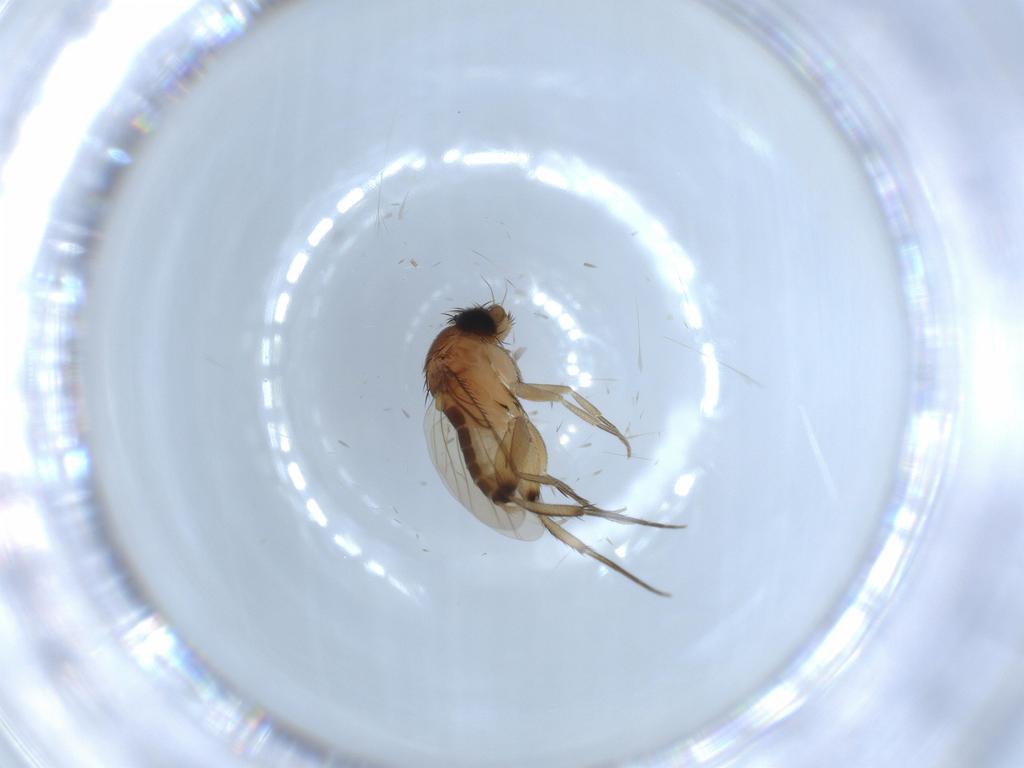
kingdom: Animalia
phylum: Arthropoda
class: Insecta
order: Diptera
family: Phoridae
